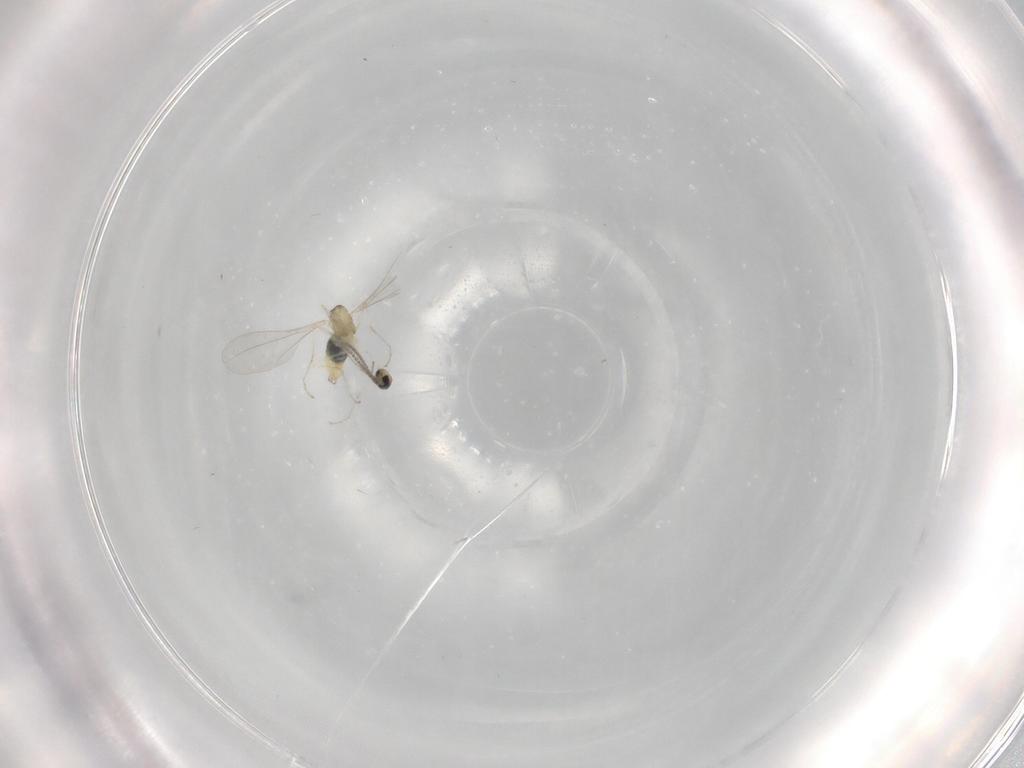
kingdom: Animalia
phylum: Arthropoda
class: Insecta
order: Diptera
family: Cecidomyiidae
